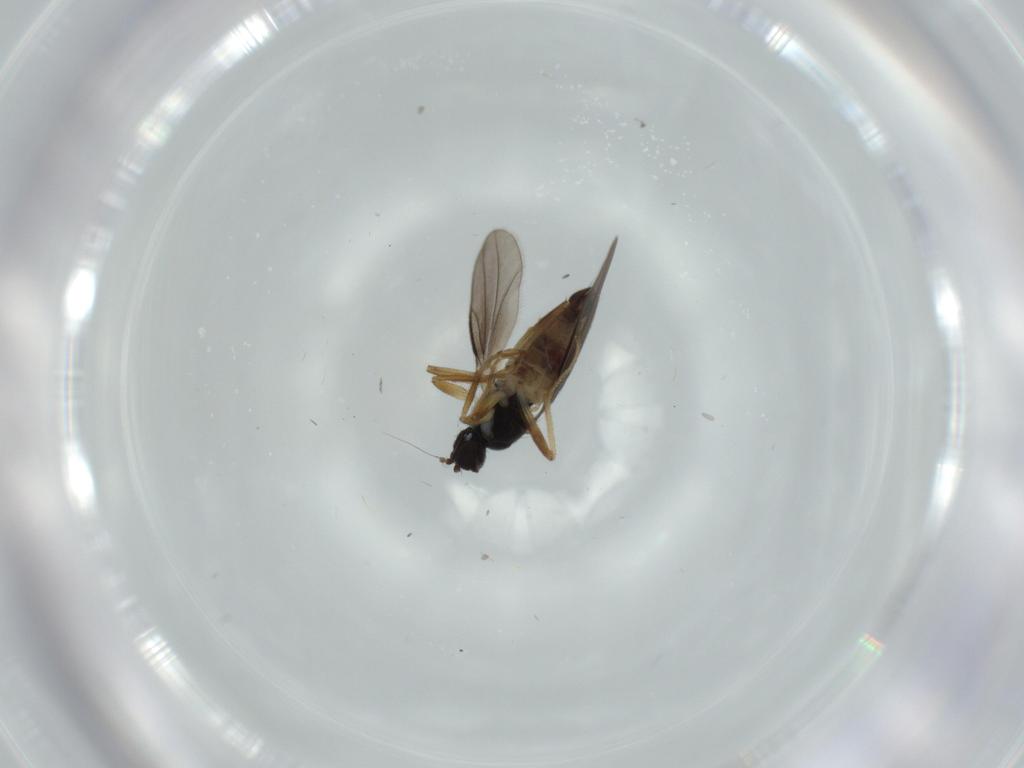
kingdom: Animalia
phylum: Arthropoda
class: Insecta
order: Diptera
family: Hybotidae
